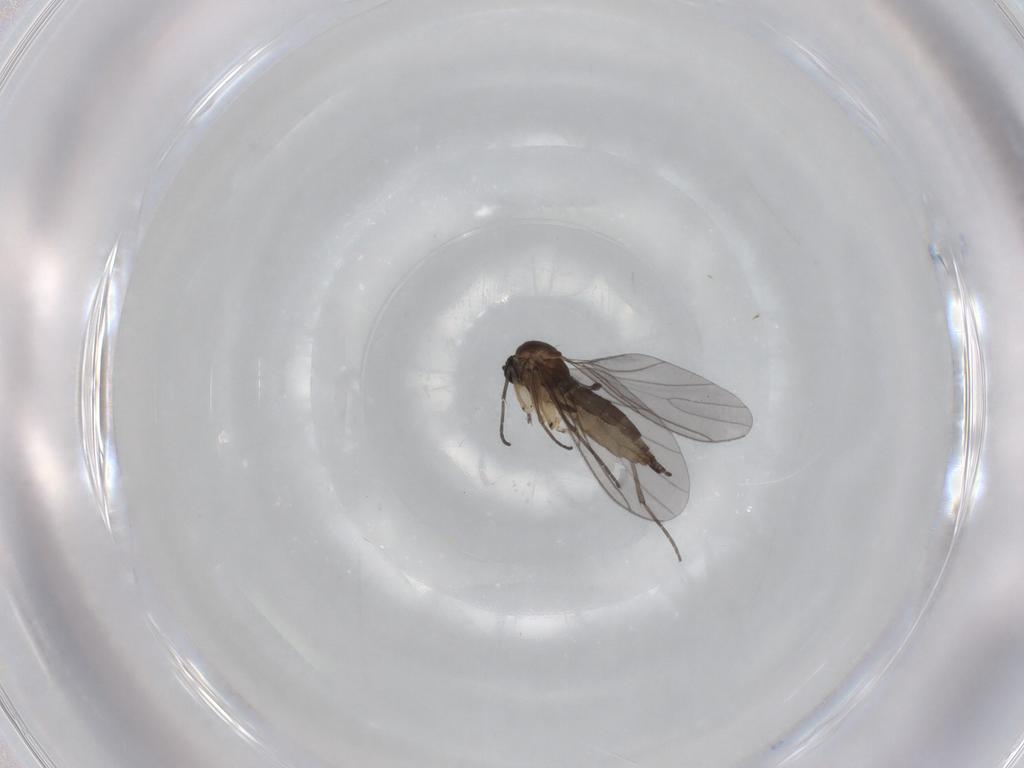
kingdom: Animalia
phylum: Arthropoda
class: Insecta
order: Diptera
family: Sciaridae
